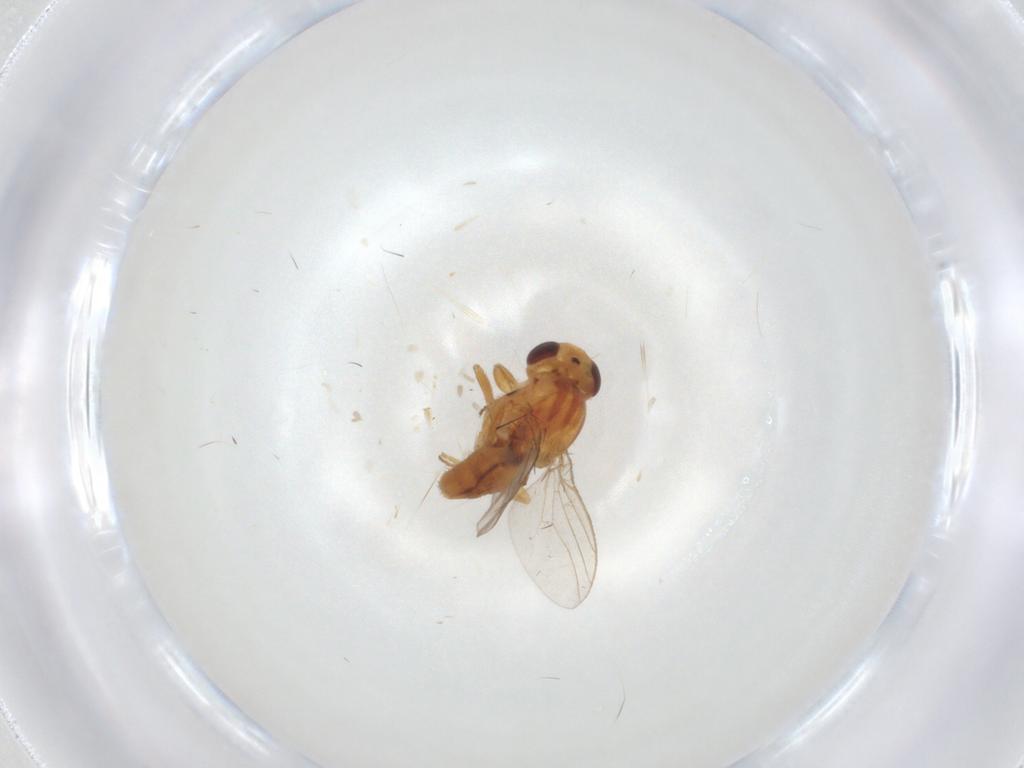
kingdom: Animalia
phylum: Arthropoda
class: Insecta
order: Diptera
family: Chloropidae
